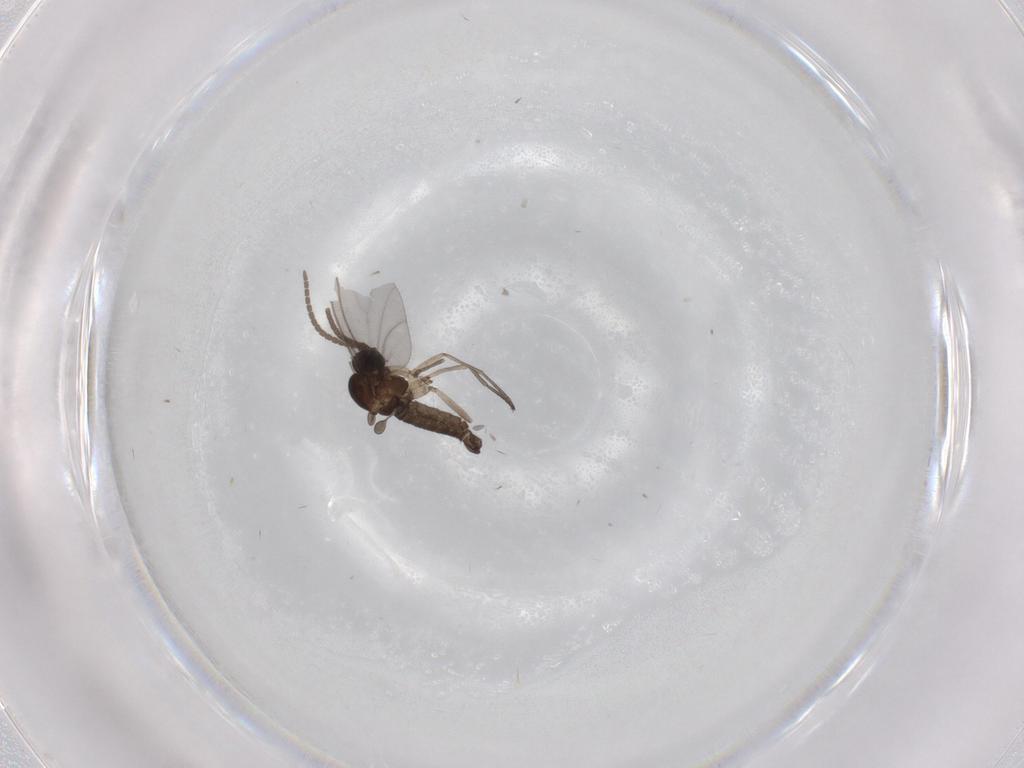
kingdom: Animalia
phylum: Arthropoda
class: Insecta
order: Diptera
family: Sciaridae
